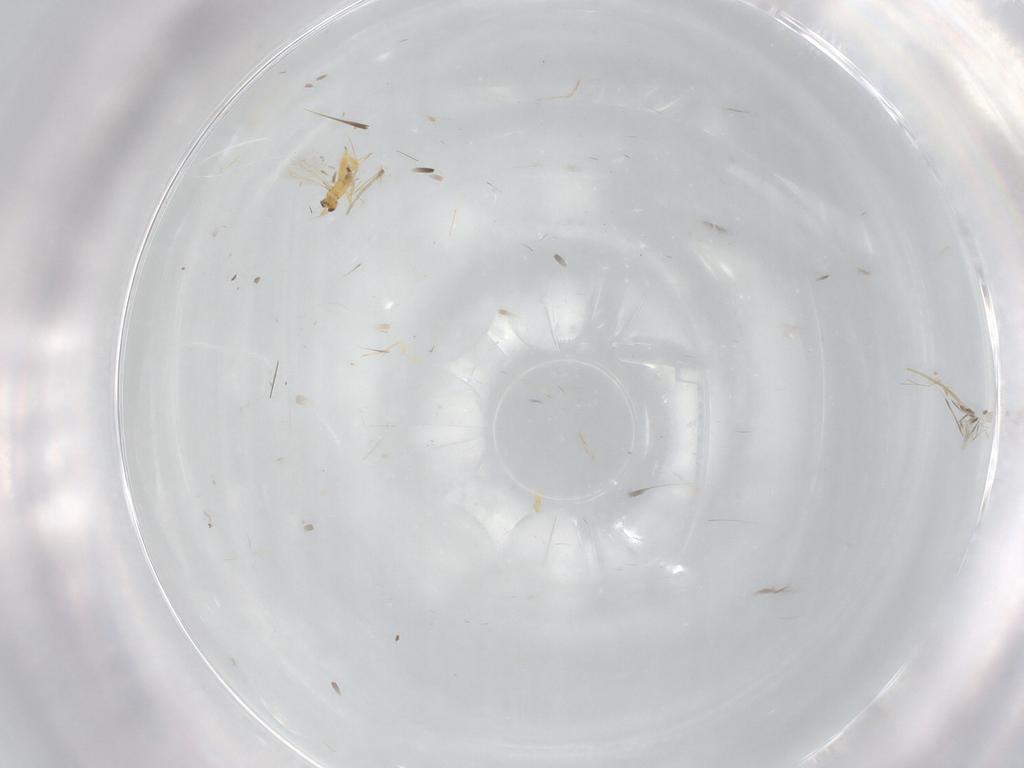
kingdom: Animalia
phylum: Arthropoda
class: Insecta
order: Hymenoptera
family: Mymaridae
